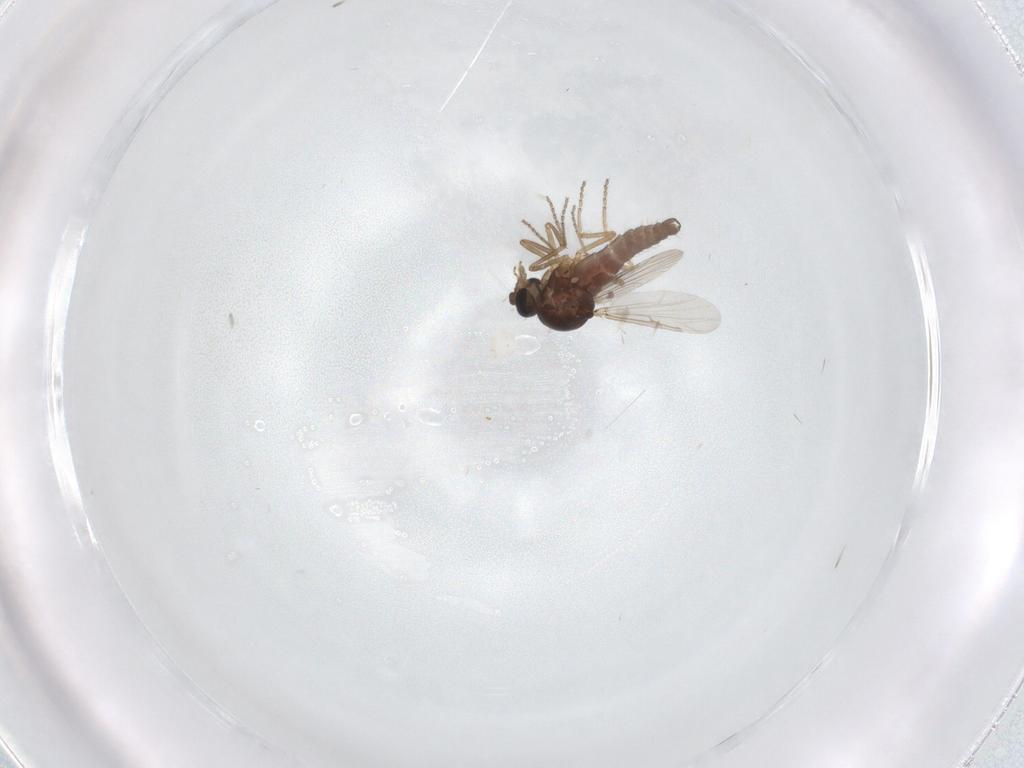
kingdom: Animalia
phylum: Arthropoda
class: Insecta
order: Diptera
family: Ceratopogonidae
